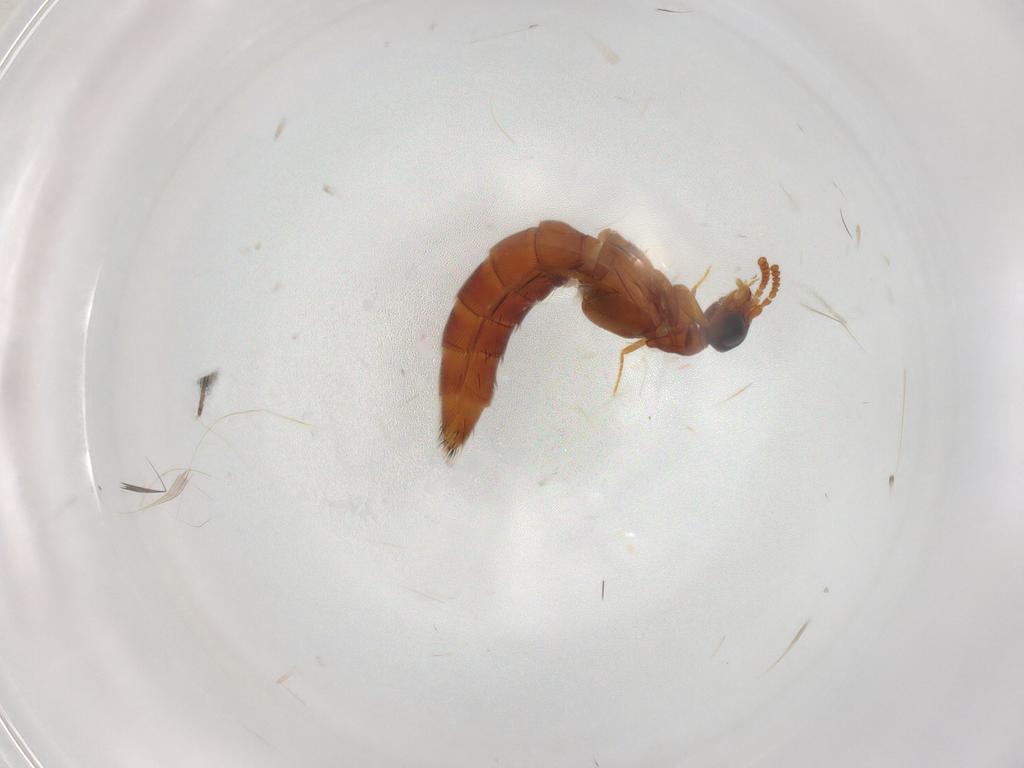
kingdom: Animalia
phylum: Arthropoda
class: Insecta
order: Coleoptera
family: Staphylinidae
